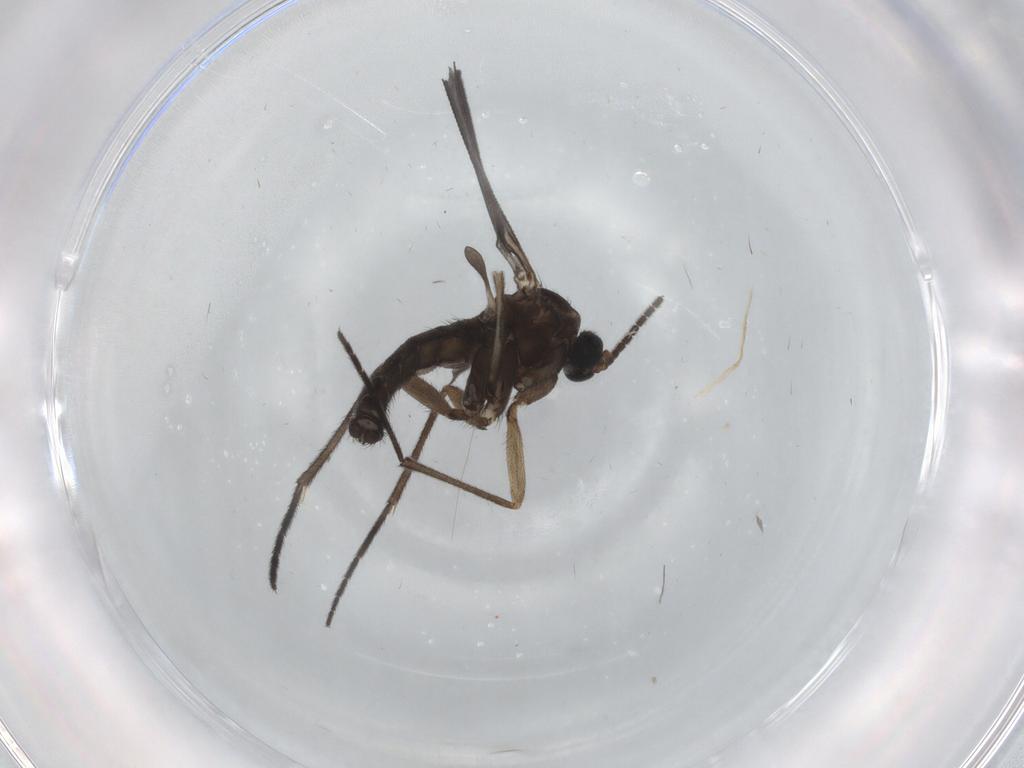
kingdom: Animalia
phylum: Arthropoda
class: Insecta
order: Diptera
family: Sciaridae
